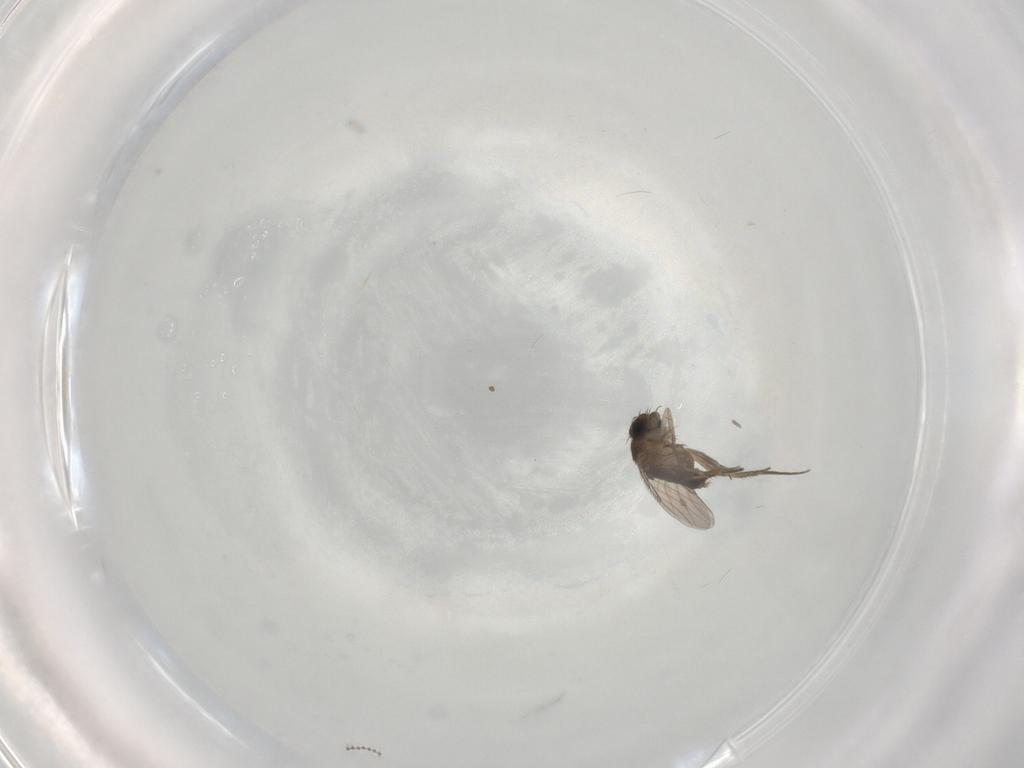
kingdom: Animalia
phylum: Arthropoda
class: Insecta
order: Diptera
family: Phoridae
